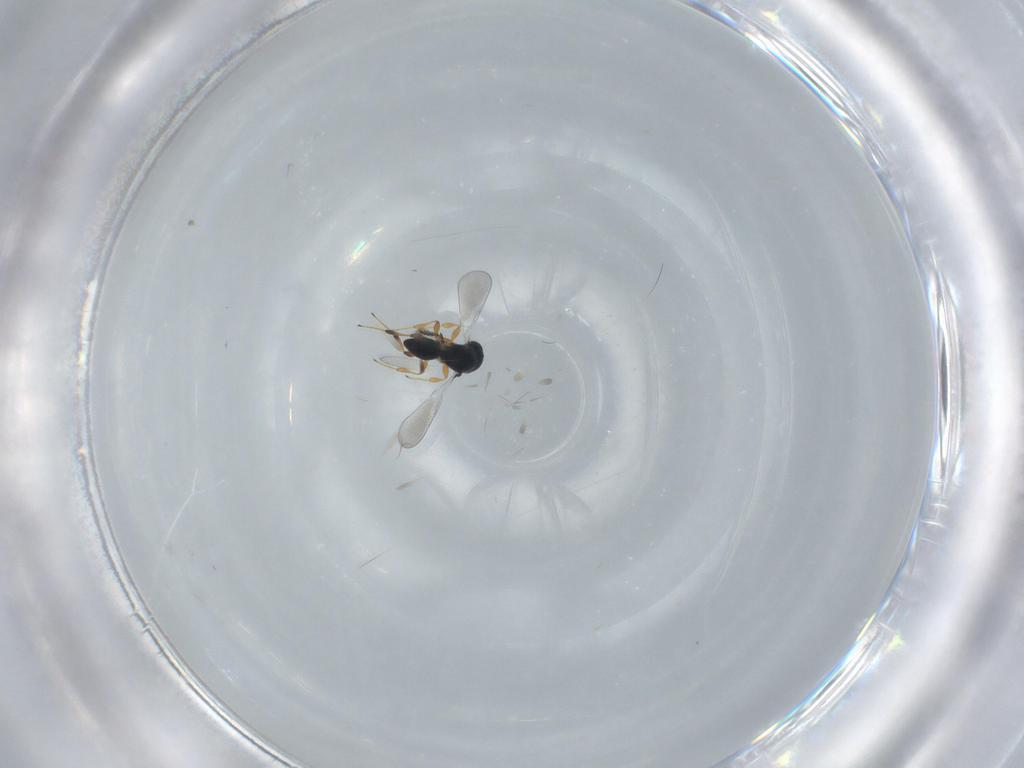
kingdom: Animalia
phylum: Arthropoda
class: Insecta
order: Hymenoptera
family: Platygastridae
